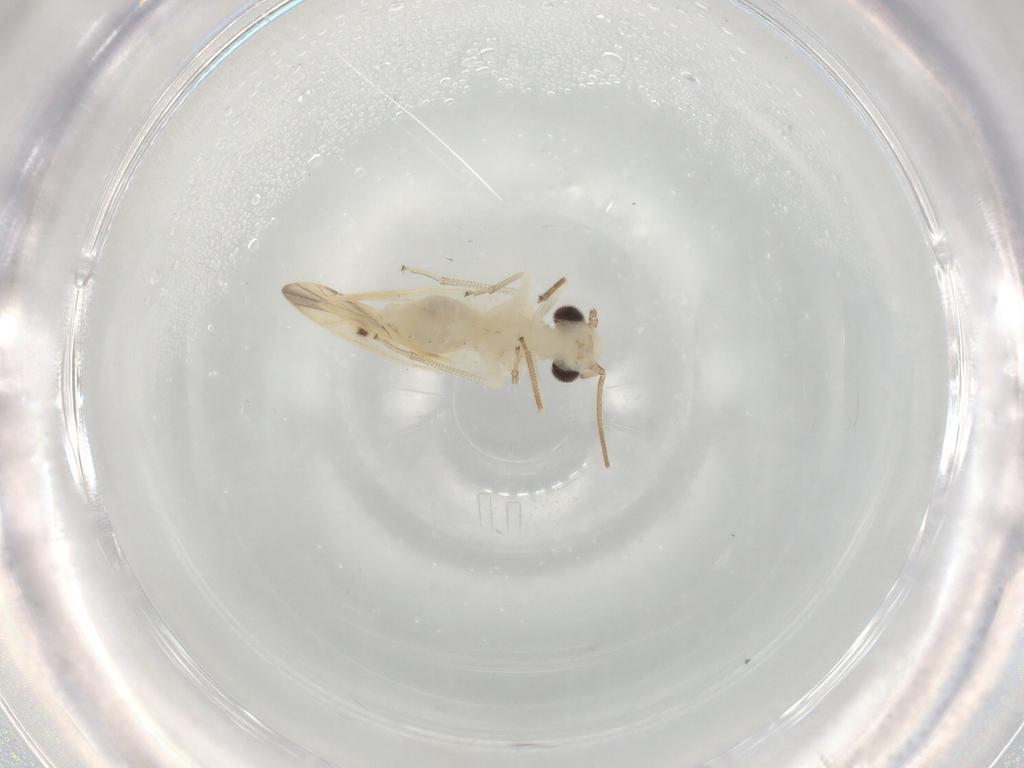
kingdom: Animalia
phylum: Arthropoda
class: Insecta
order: Psocodea
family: Caeciliusidae
